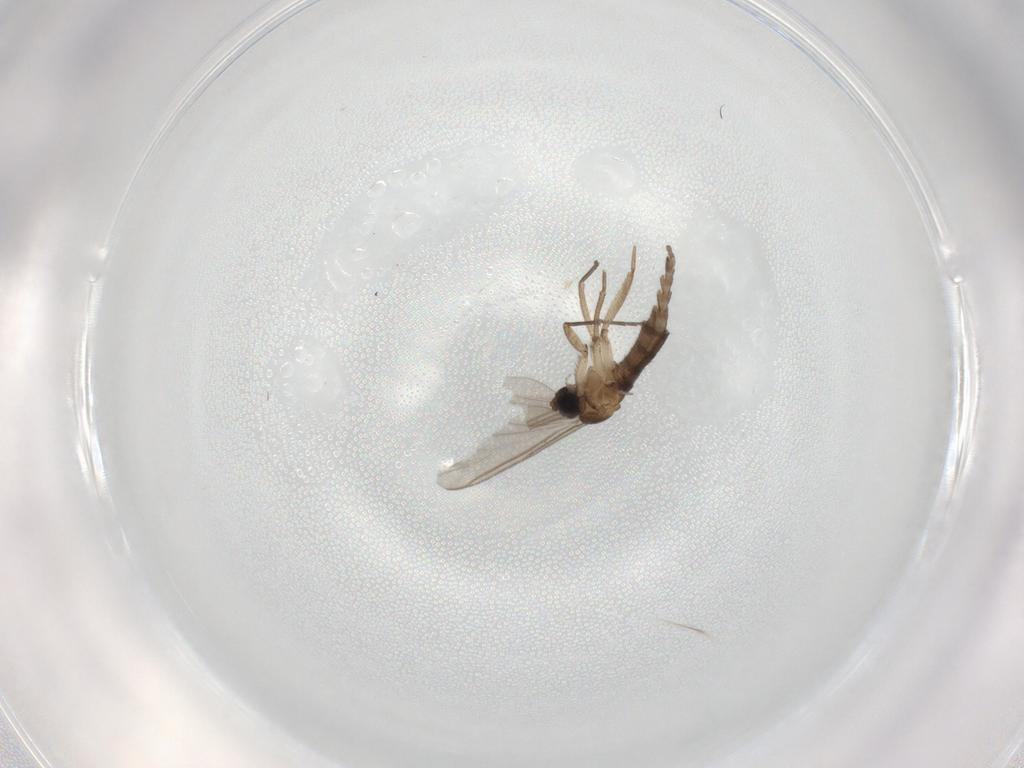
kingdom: Animalia
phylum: Arthropoda
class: Insecta
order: Diptera
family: Sciaridae
